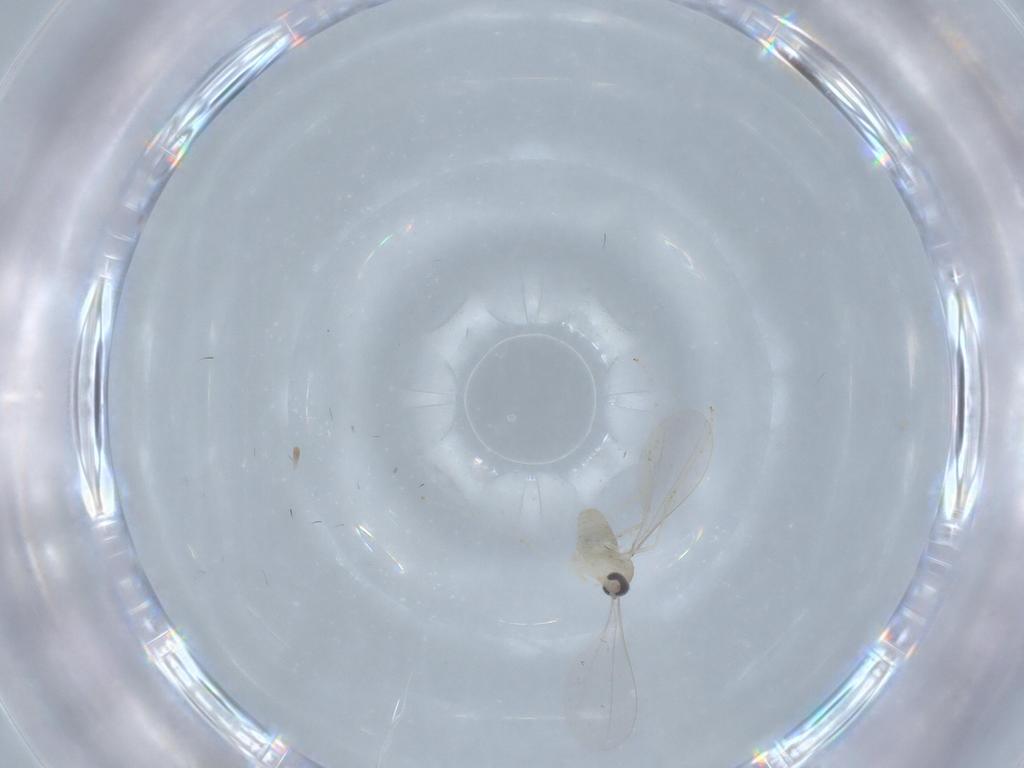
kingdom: Animalia
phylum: Arthropoda
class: Insecta
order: Diptera
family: Cecidomyiidae
